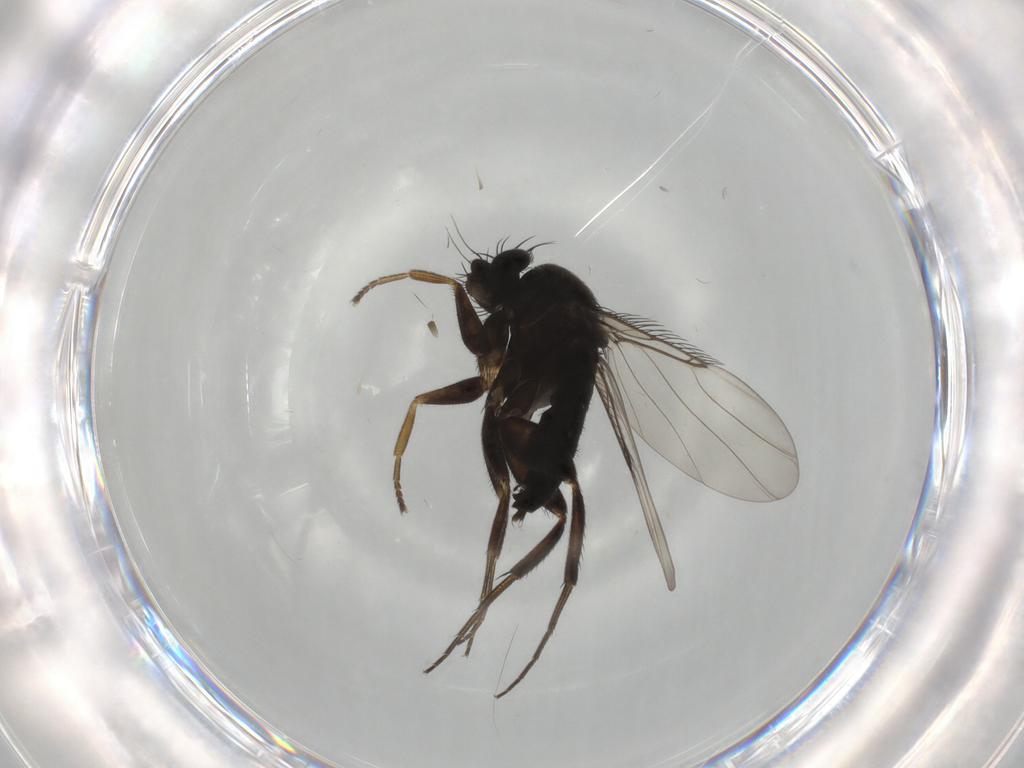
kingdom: Animalia
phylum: Arthropoda
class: Insecta
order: Diptera
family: Phoridae
